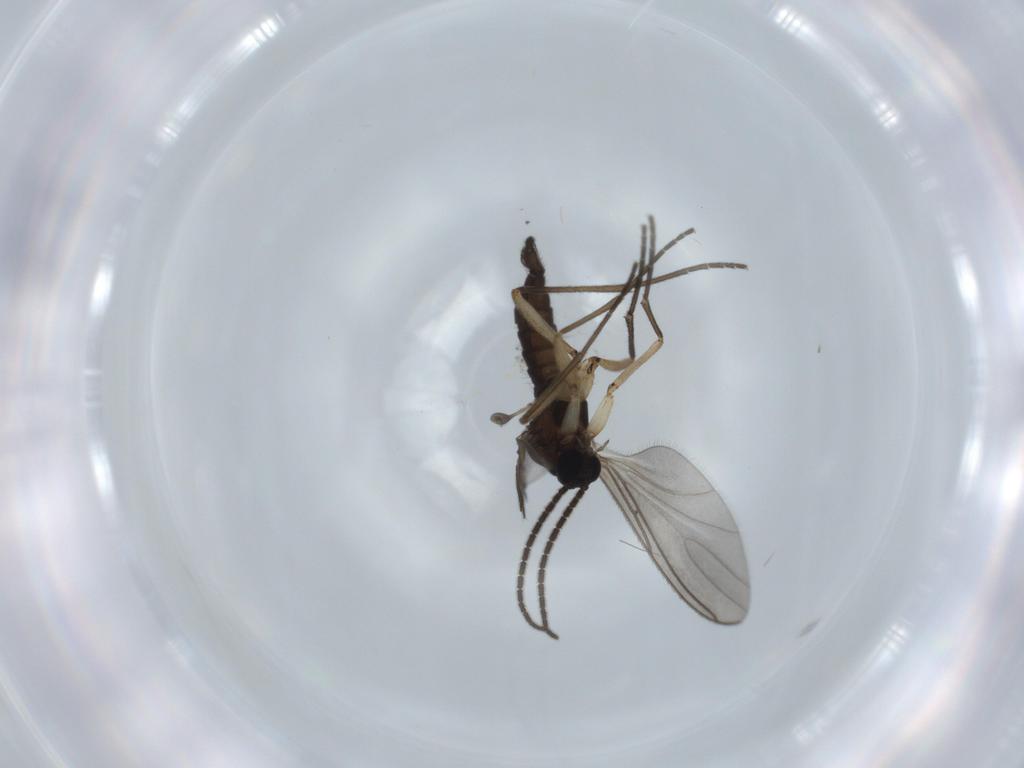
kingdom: Animalia
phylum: Arthropoda
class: Insecta
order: Diptera
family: Sciaridae
